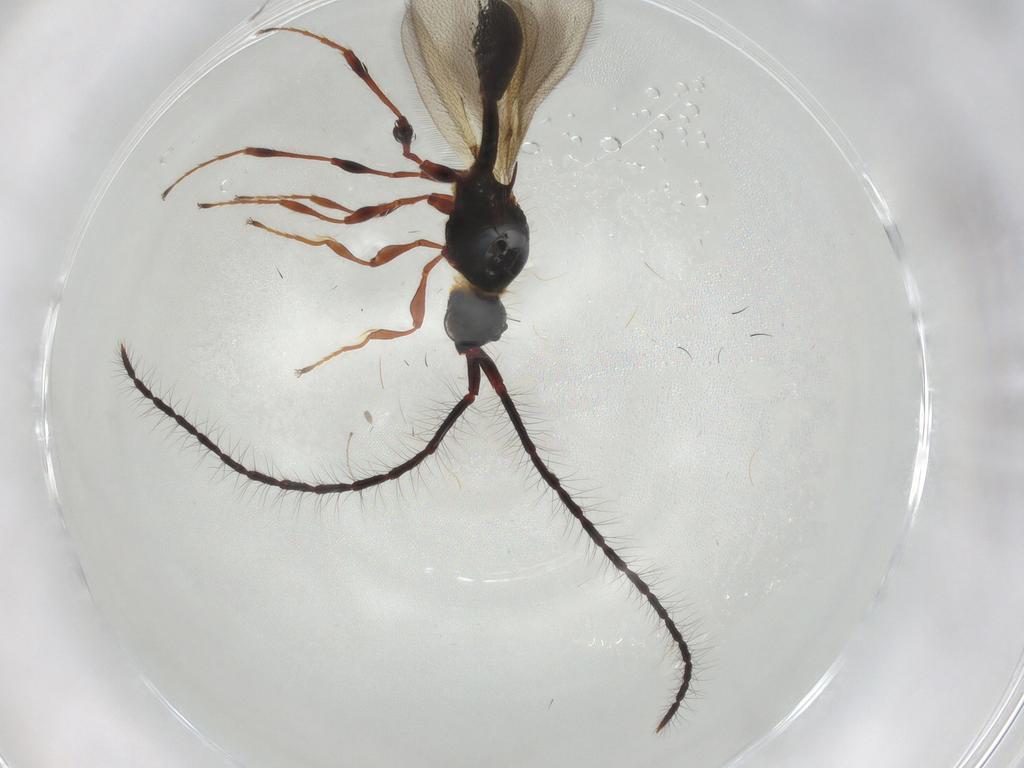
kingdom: Animalia
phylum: Arthropoda
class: Insecta
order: Hymenoptera
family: Diapriidae
